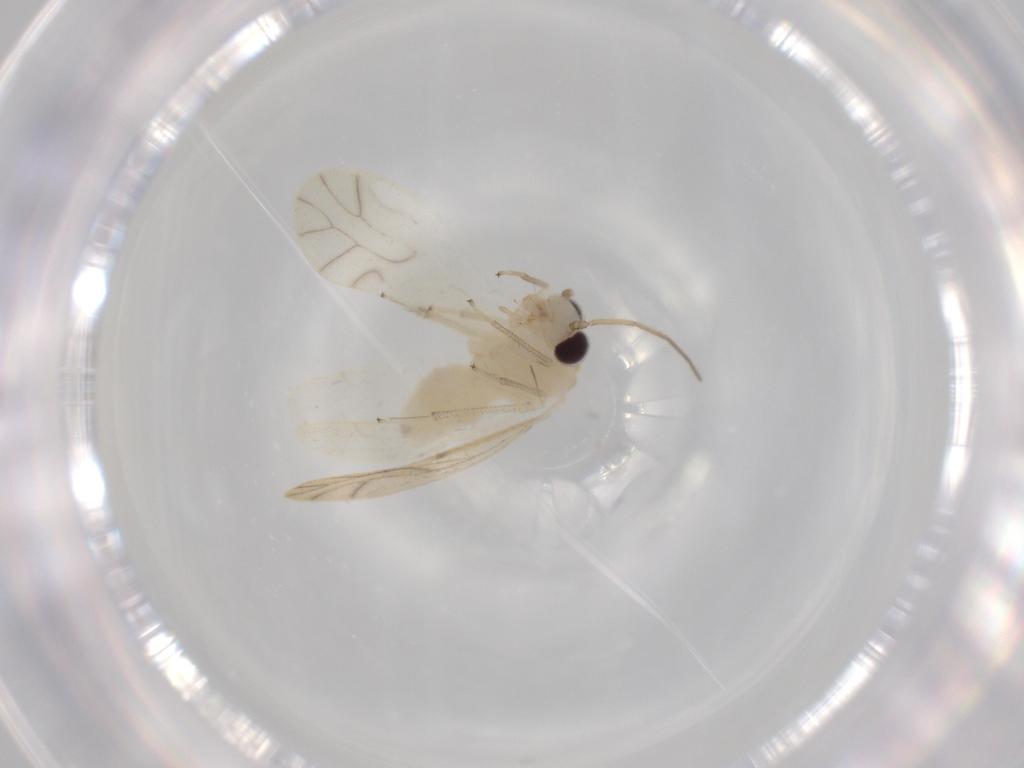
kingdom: Animalia
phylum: Arthropoda
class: Insecta
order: Psocodea
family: Caeciliusidae
